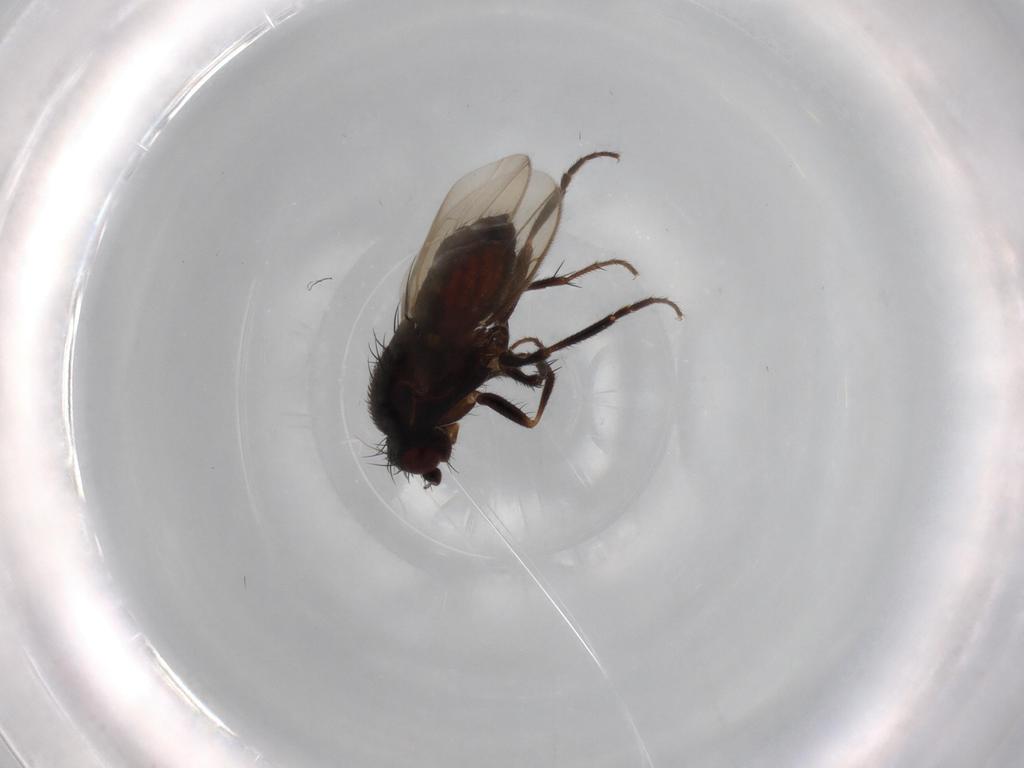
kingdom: Animalia
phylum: Arthropoda
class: Insecta
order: Diptera
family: Sphaeroceridae
